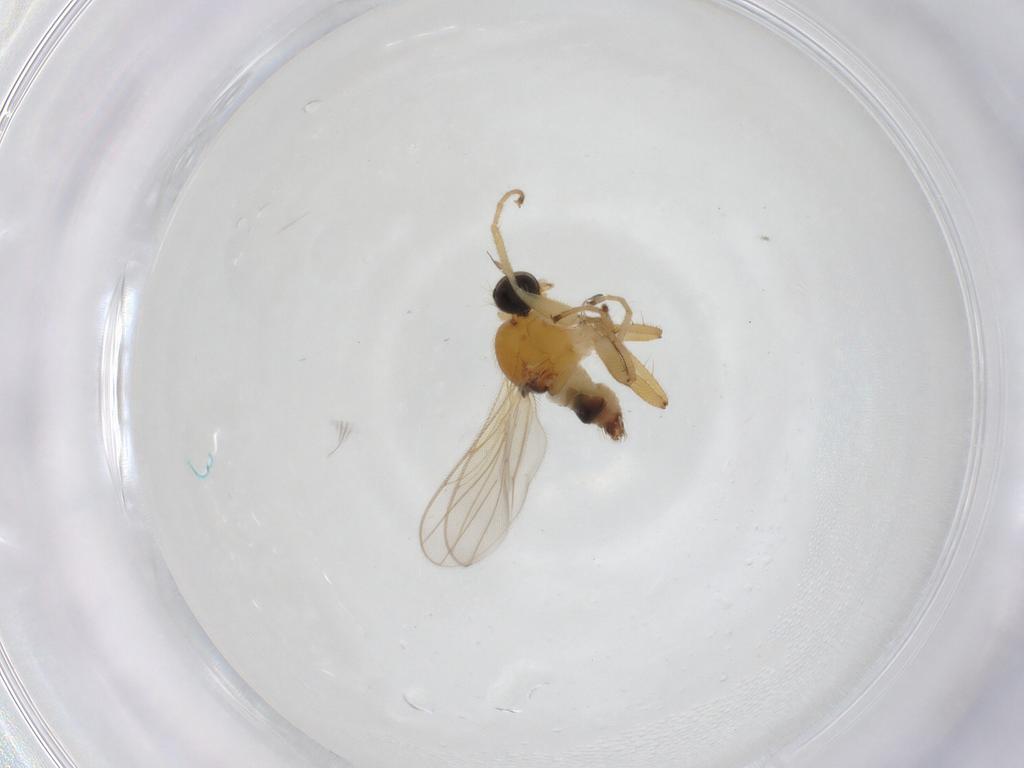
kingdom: Animalia
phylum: Arthropoda
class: Insecta
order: Diptera
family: Hybotidae
